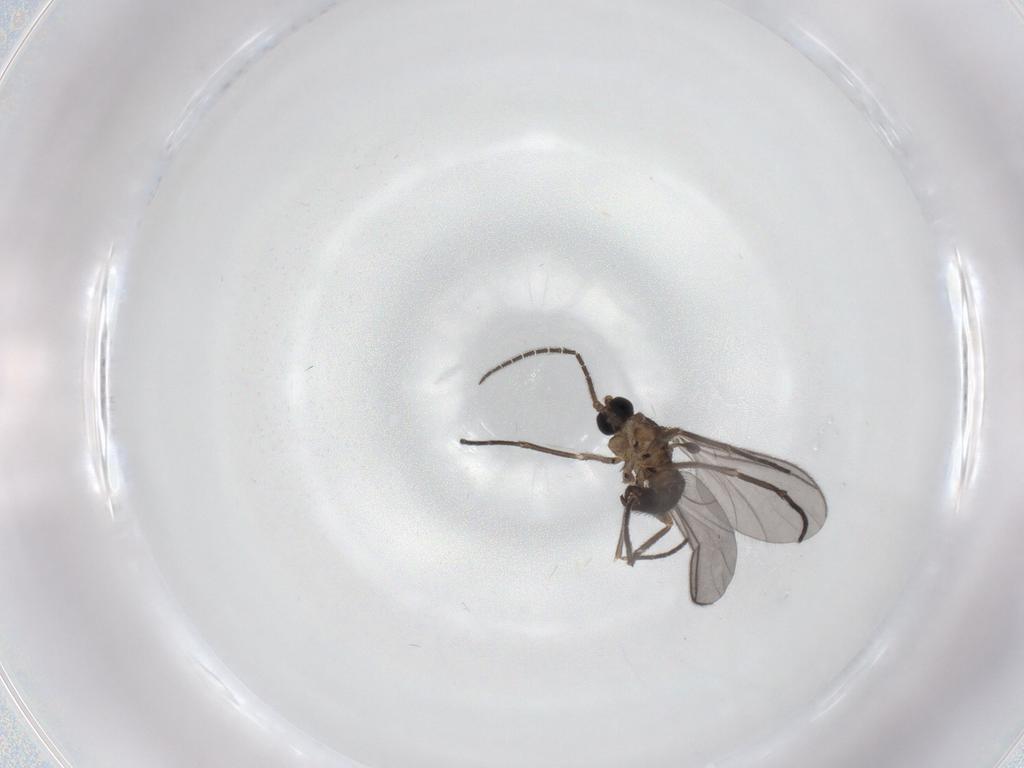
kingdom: Animalia
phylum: Arthropoda
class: Insecta
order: Diptera
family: Sciaridae
